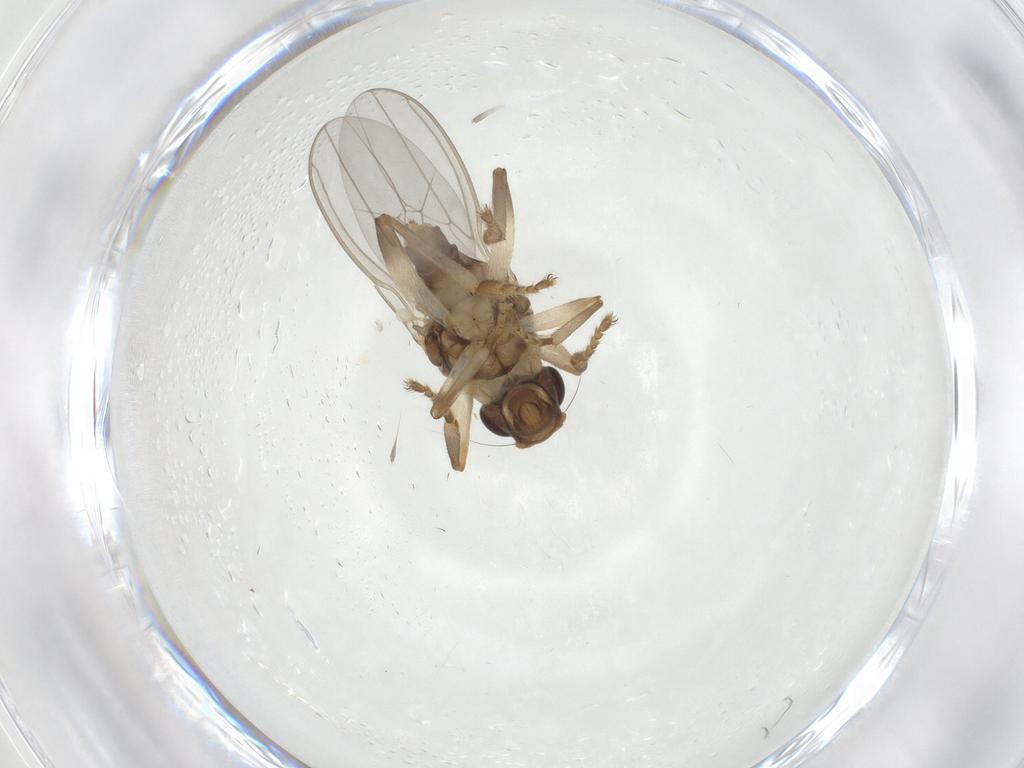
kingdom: Animalia
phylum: Arthropoda
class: Insecta
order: Diptera
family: Sphaeroceridae
